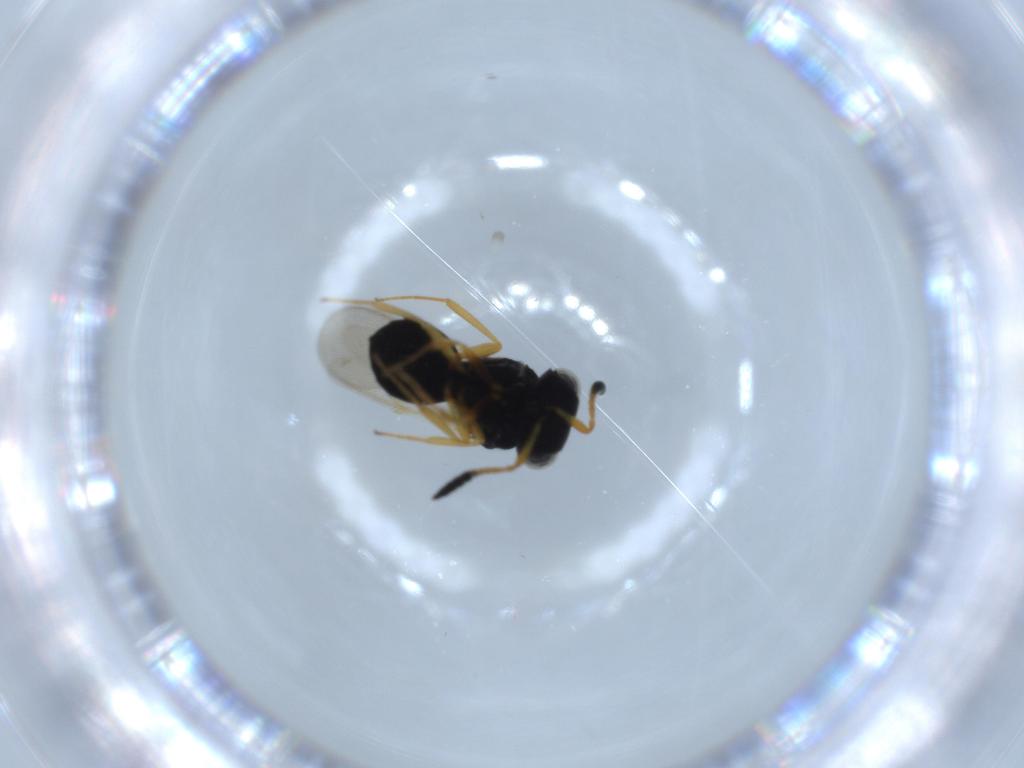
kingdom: Animalia
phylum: Arthropoda
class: Insecta
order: Hymenoptera
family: Scelionidae
